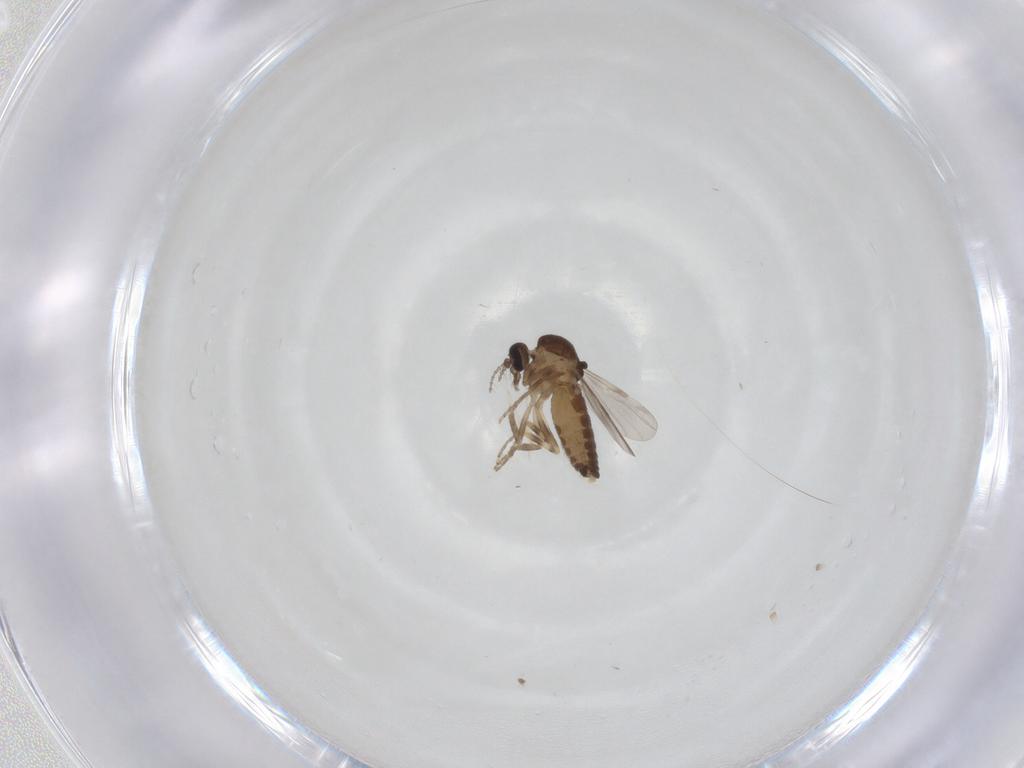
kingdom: Animalia
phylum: Arthropoda
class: Insecta
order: Diptera
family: Ceratopogonidae
